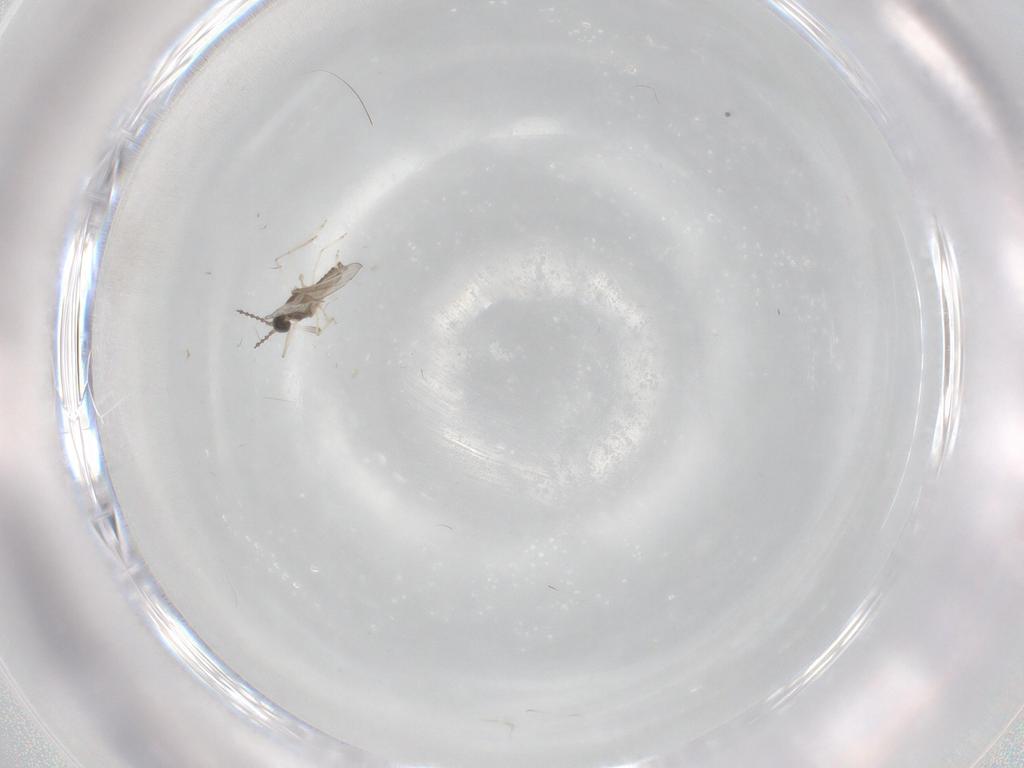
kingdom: Animalia
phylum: Arthropoda
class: Insecta
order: Diptera
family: Cecidomyiidae
